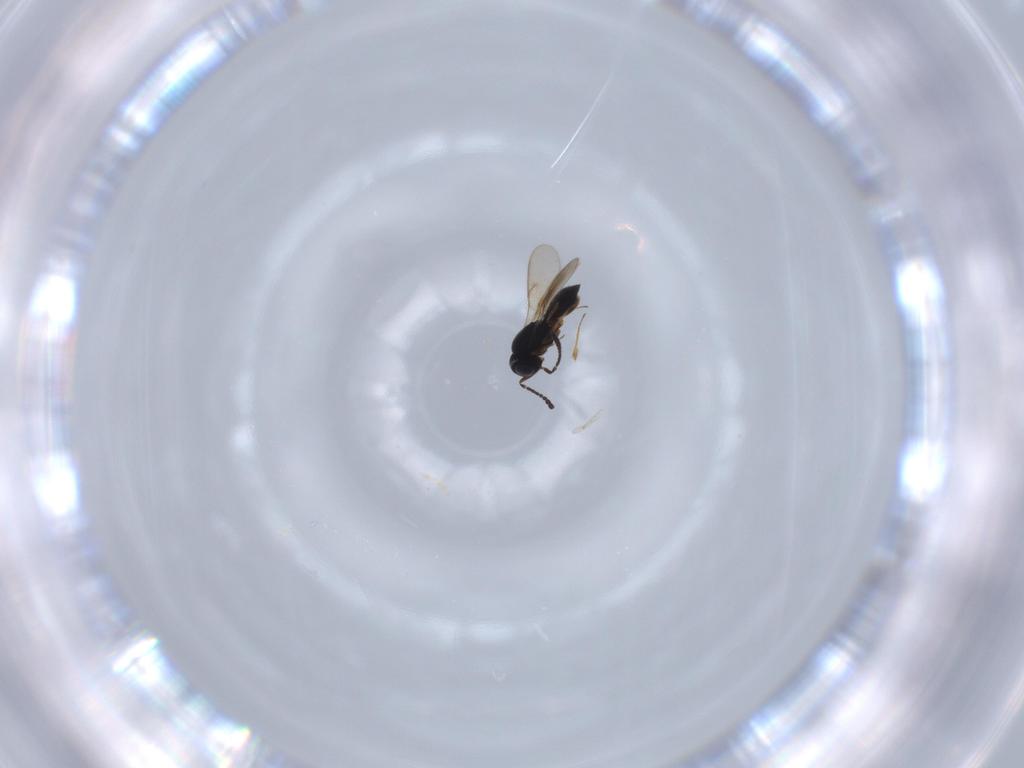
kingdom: Animalia
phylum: Arthropoda
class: Insecta
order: Hymenoptera
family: Scelionidae
